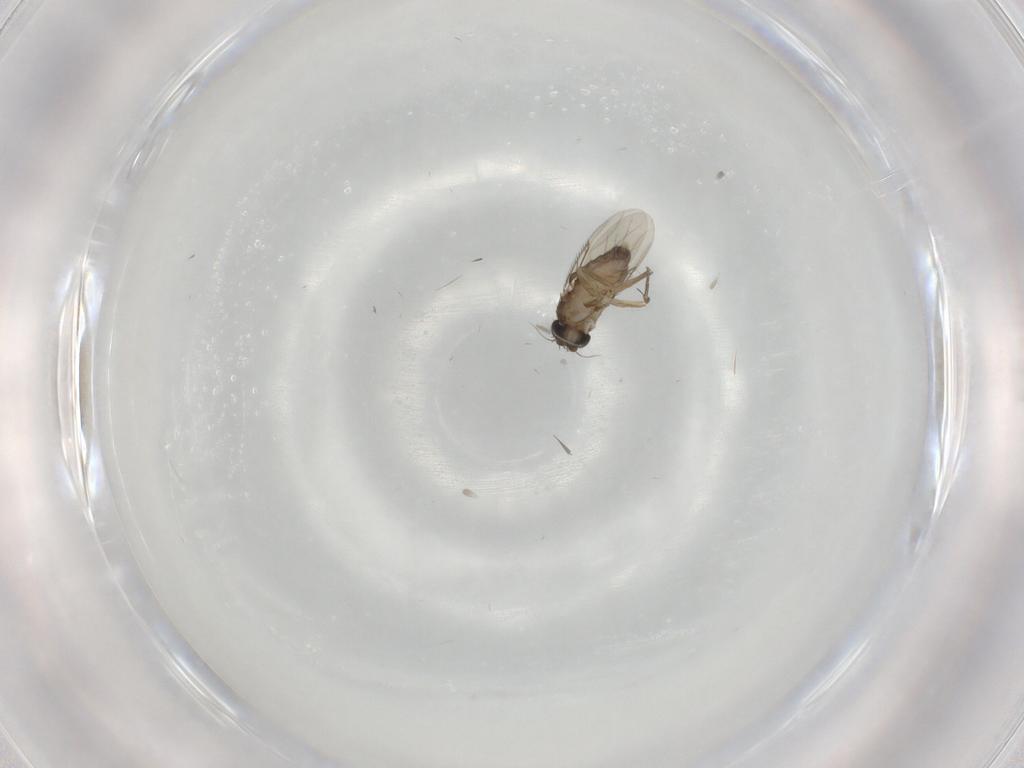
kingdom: Animalia
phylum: Arthropoda
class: Insecta
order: Diptera
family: Phoridae
